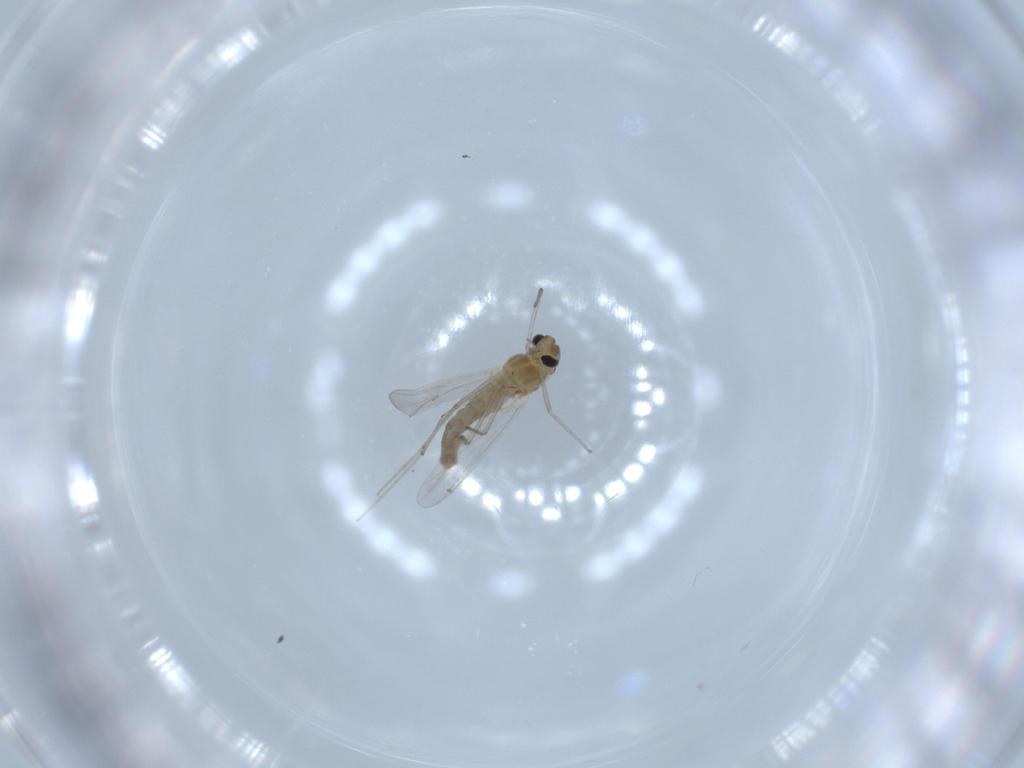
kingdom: Animalia
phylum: Arthropoda
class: Insecta
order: Diptera
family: Chironomidae
